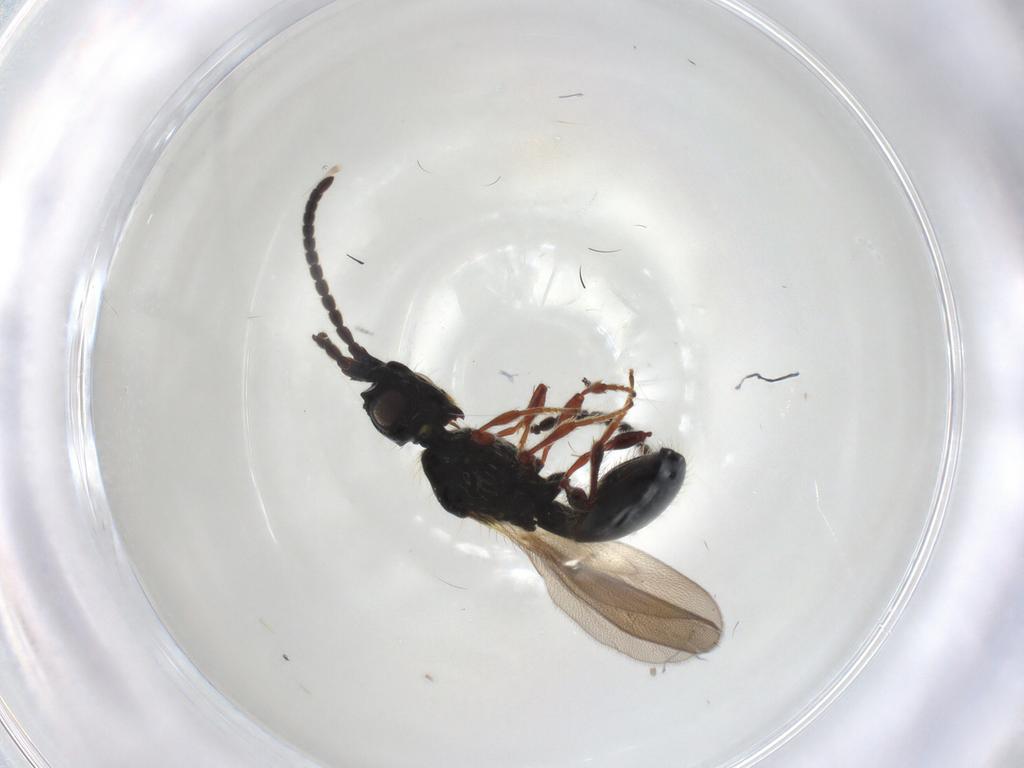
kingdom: Animalia
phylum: Arthropoda
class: Insecta
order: Hymenoptera
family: Diapriidae
